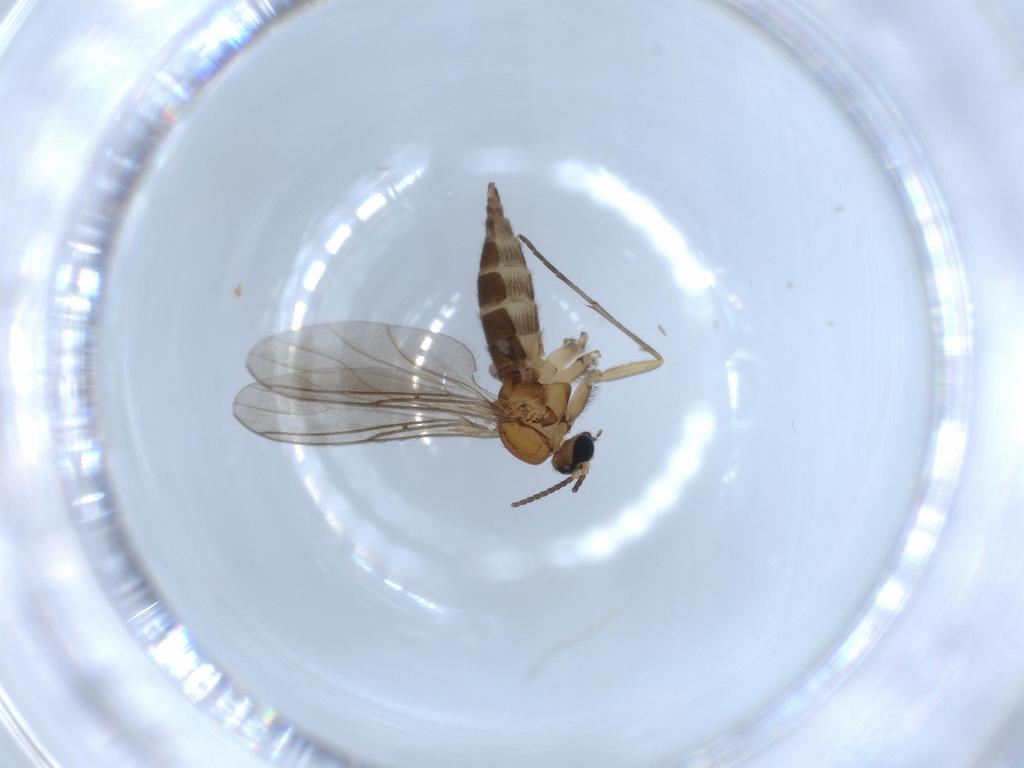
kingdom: Animalia
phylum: Arthropoda
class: Insecta
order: Diptera
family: Sciaridae
